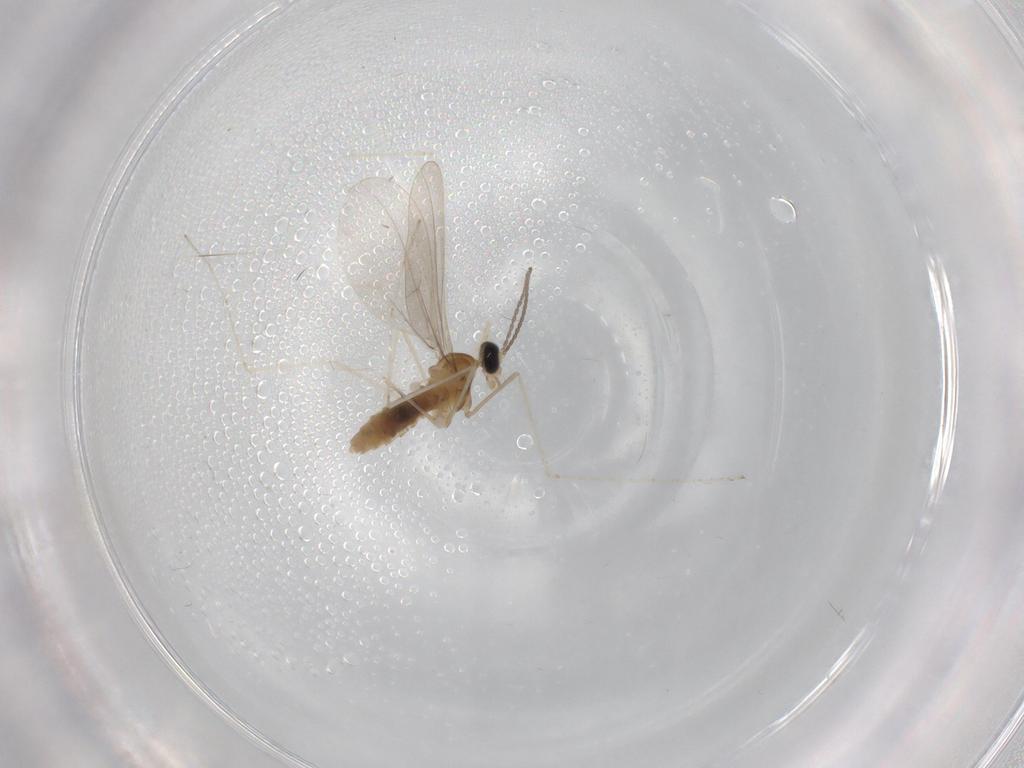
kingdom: Animalia
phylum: Arthropoda
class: Insecta
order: Diptera
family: Cecidomyiidae
